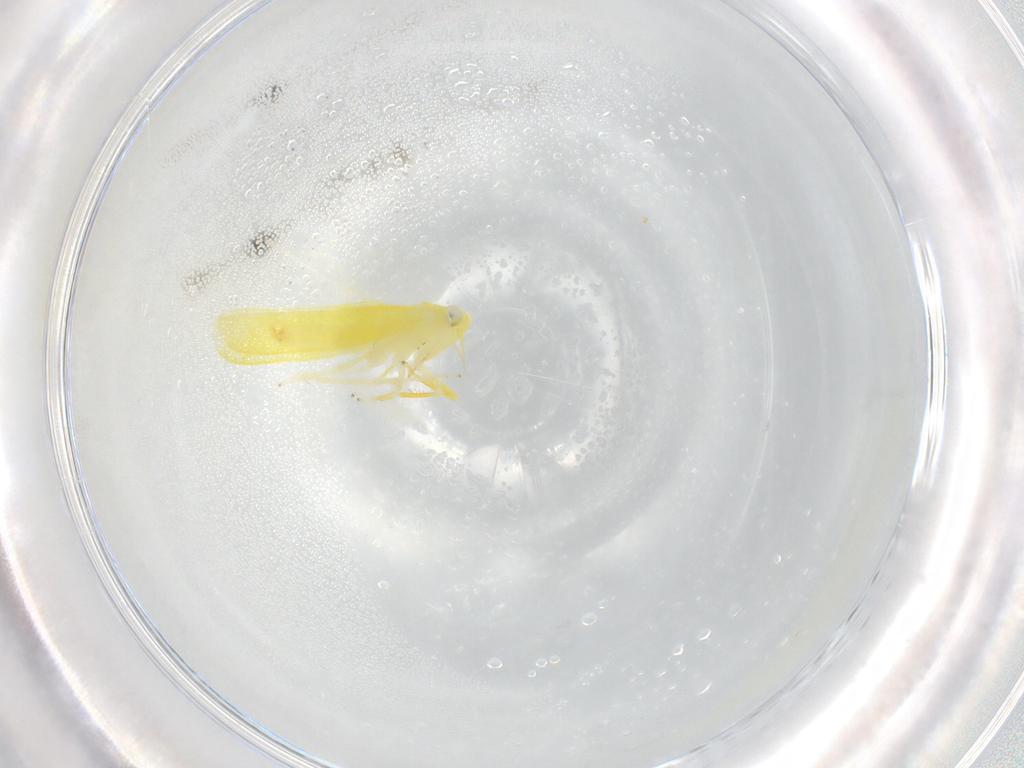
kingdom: Animalia
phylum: Arthropoda
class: Insecta
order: Hemiptera
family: Cicadellidae
